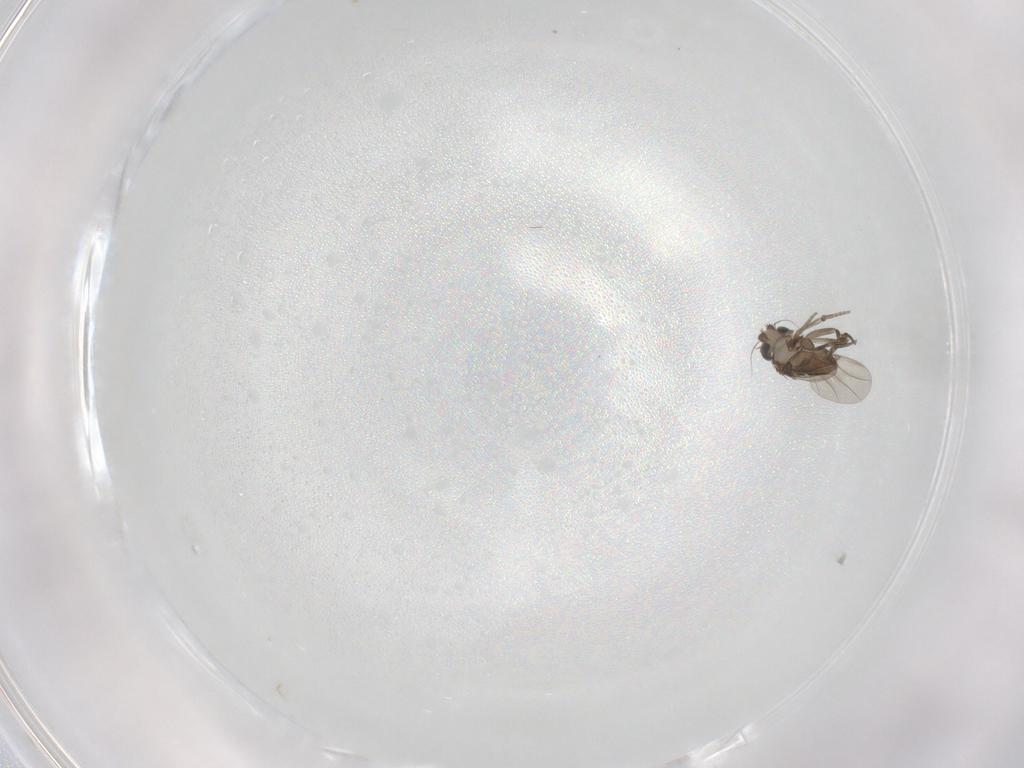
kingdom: Animalia
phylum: Arthropoda
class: Insecta
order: Diptera
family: Phoridae
